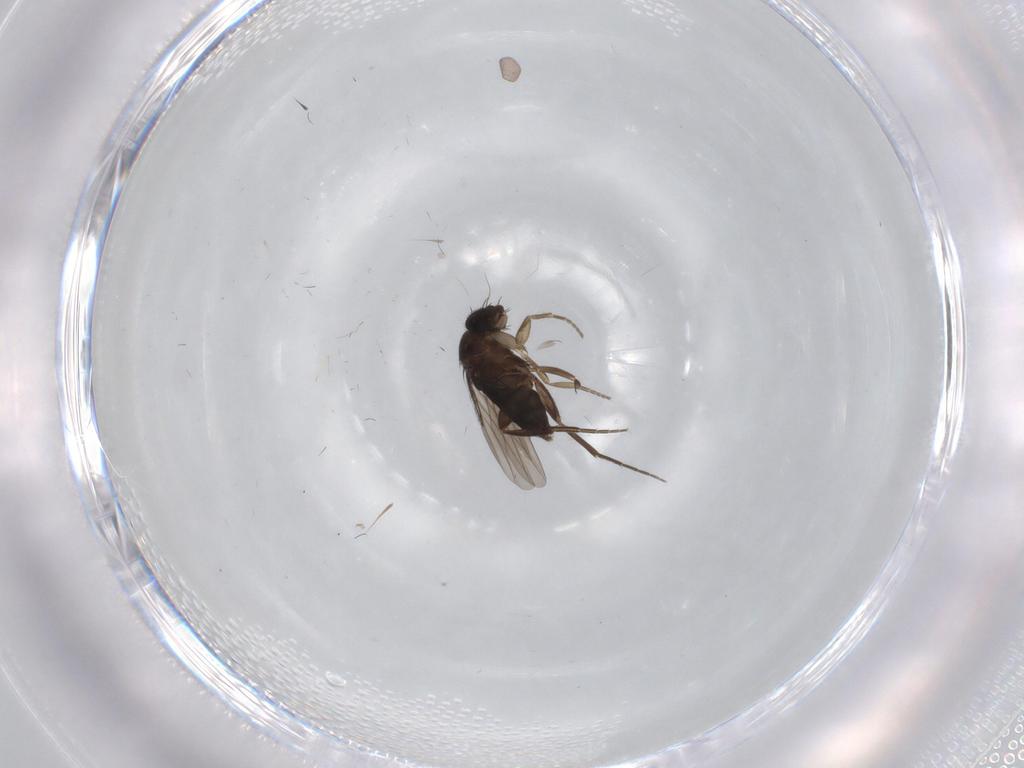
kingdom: Animalia
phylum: Arthropoda
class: Insecta
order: Diptera
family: Phoridae
